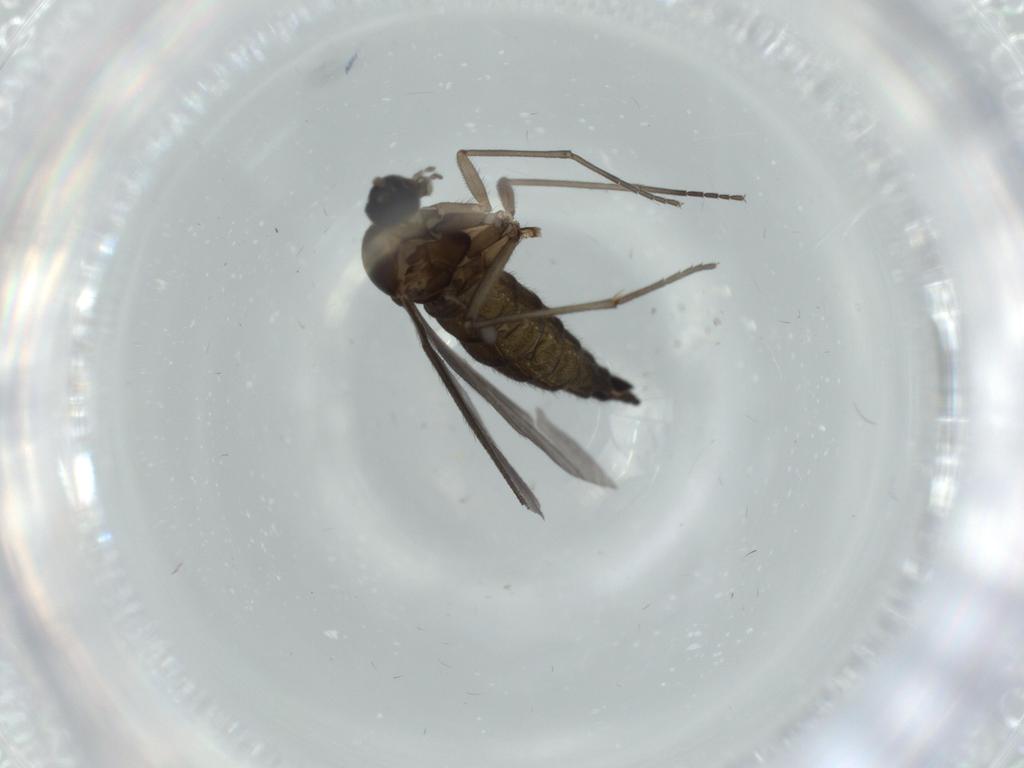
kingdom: Animalia
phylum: Arthropoda
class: Insecta
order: Diptera
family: Sciaridae
